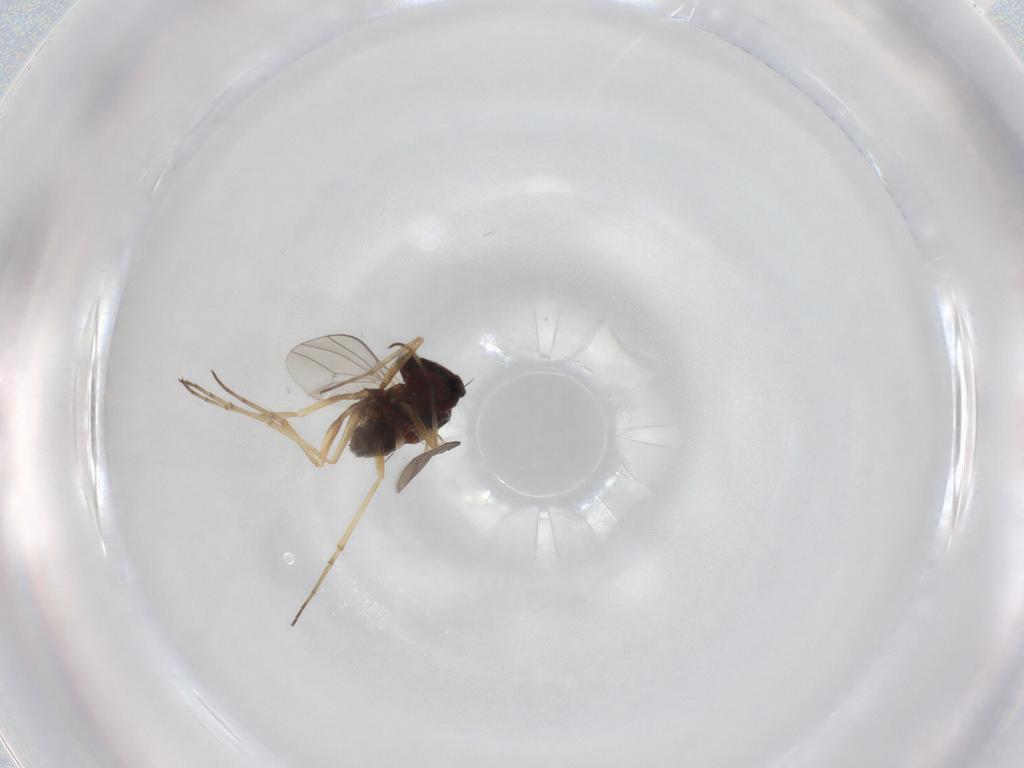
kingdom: Animalia
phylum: Arthropoda
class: Insecta
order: Diptera
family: Dolichopodidae
